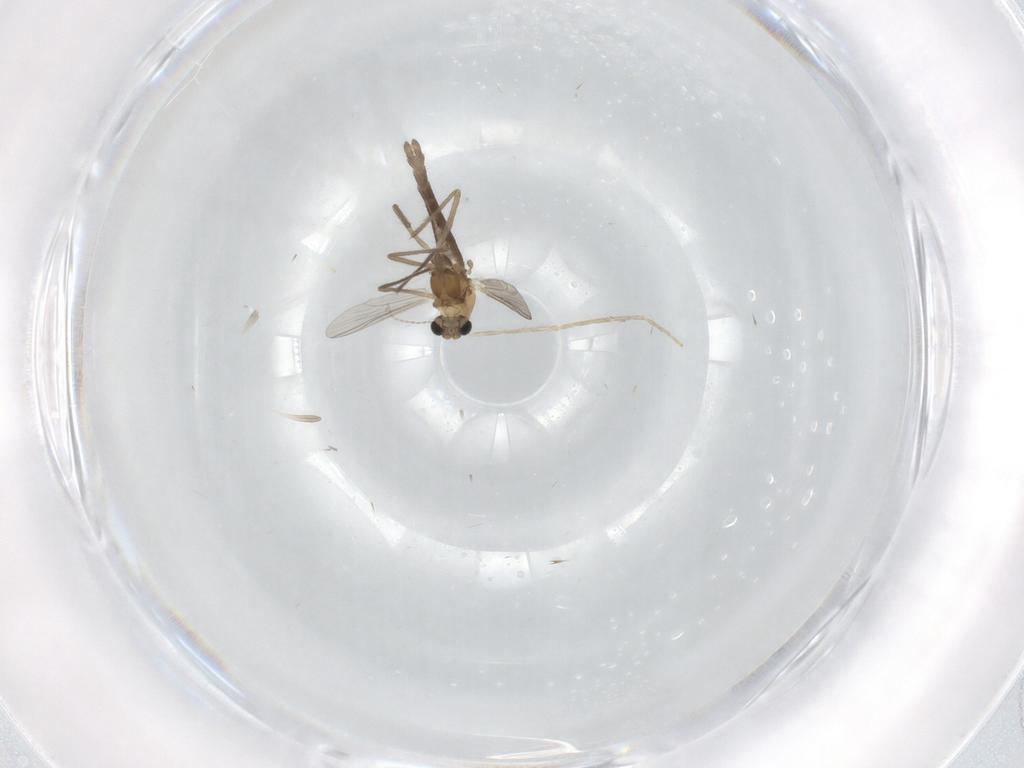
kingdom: Animalia
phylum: Arthropoda
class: Insecta
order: Diptera
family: Chironomidae
